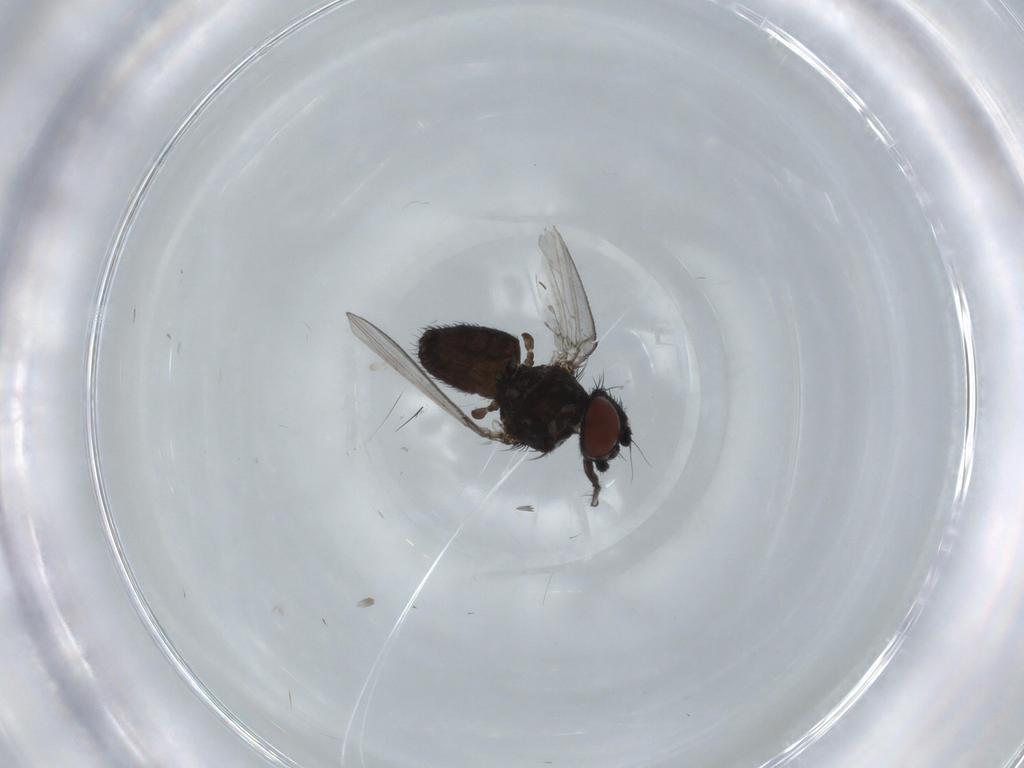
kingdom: Animalia
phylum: Arthropoda
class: Insecta
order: Diptera
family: Milichiidae
